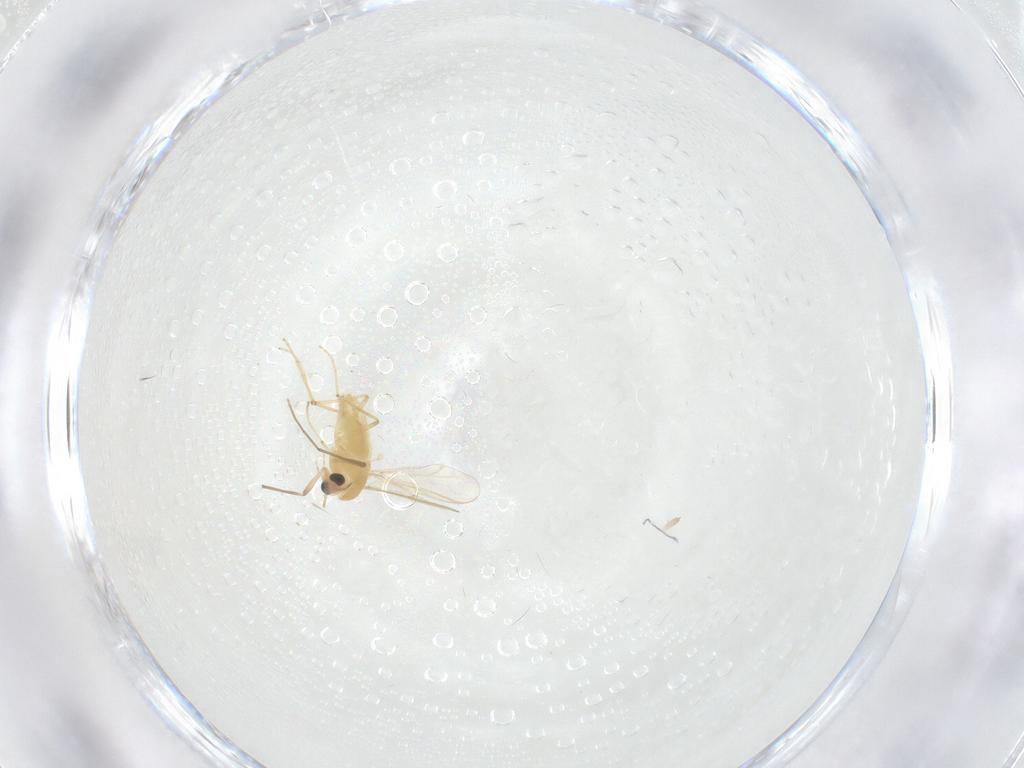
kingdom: Animalia
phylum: Arthropoda
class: Insecta
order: Diptera
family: Chironomidae
